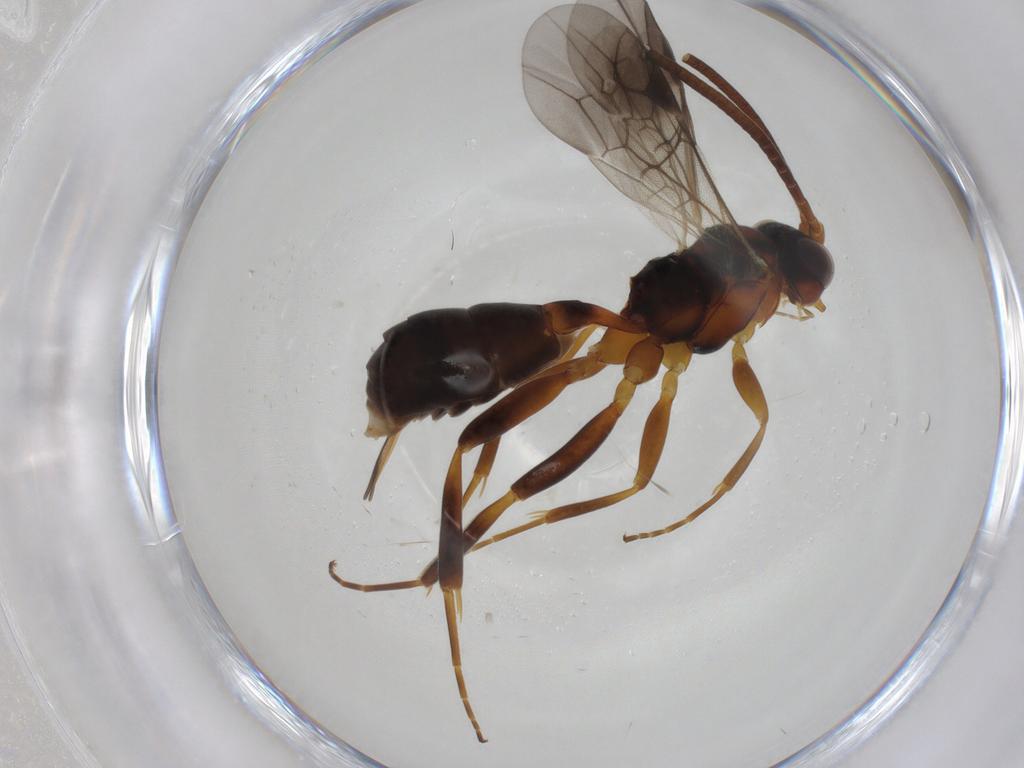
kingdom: Animalia
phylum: Arthropoda
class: Insecta
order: Hymenoptera
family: Ichneumonidae
